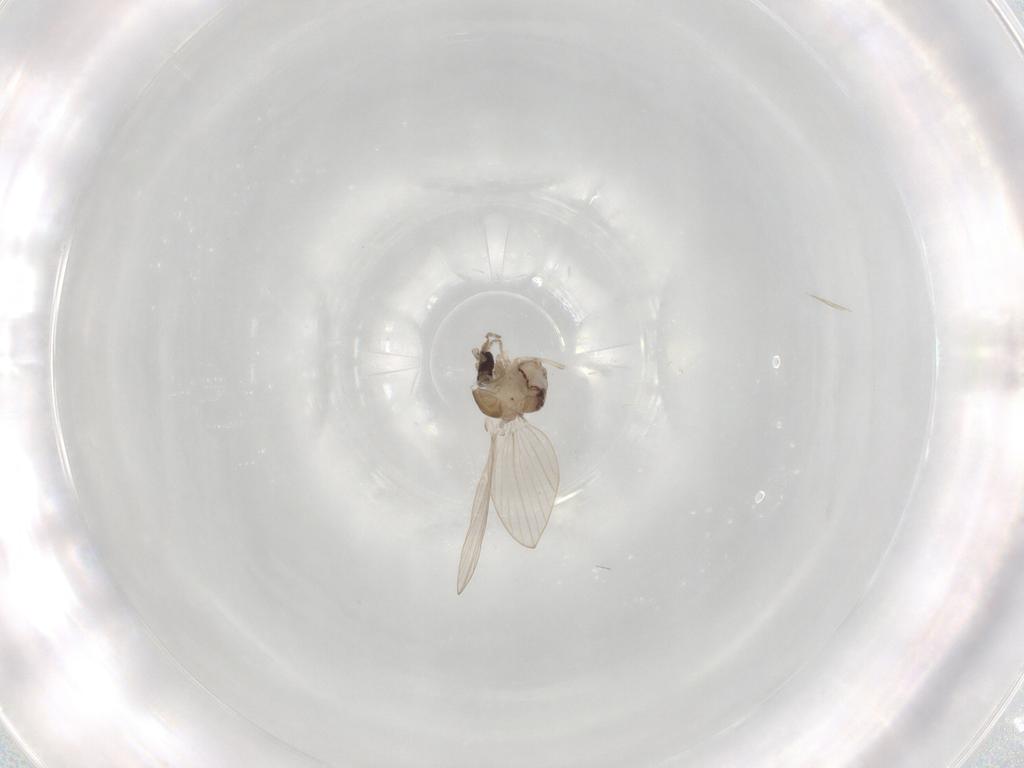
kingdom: Animalia
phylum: Arthropoda
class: Insecta
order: Diptera
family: Psychodidae
